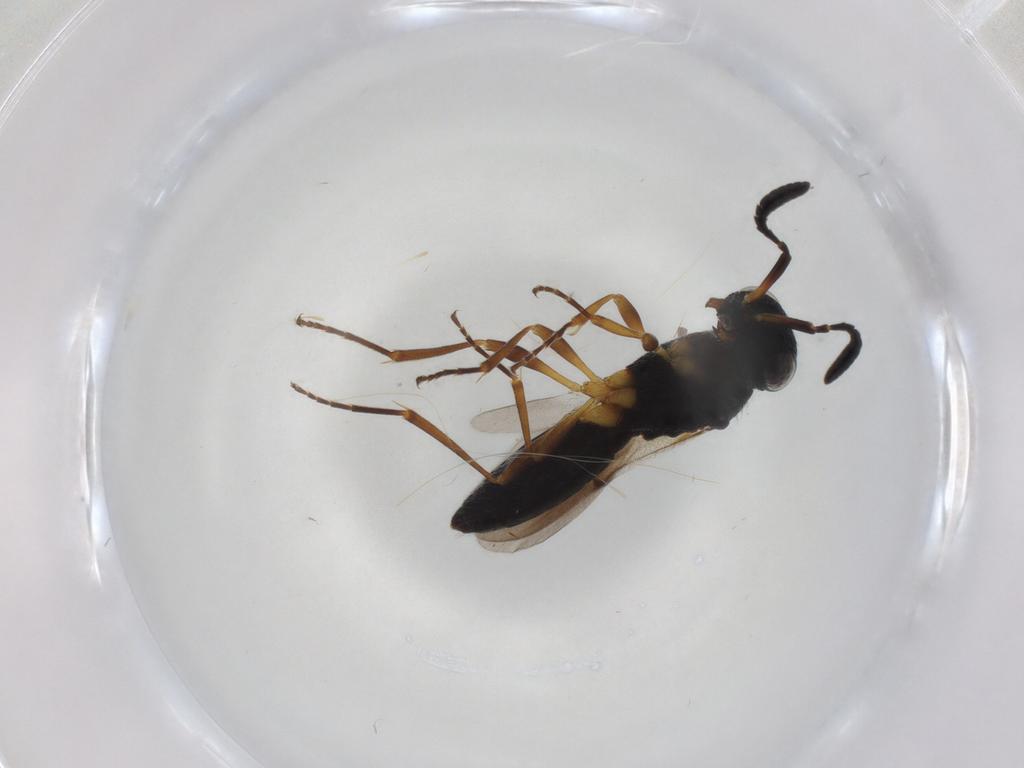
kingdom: Animalia
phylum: Arthropoda
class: Insecta
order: Hymenoptera
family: Scelionidae
